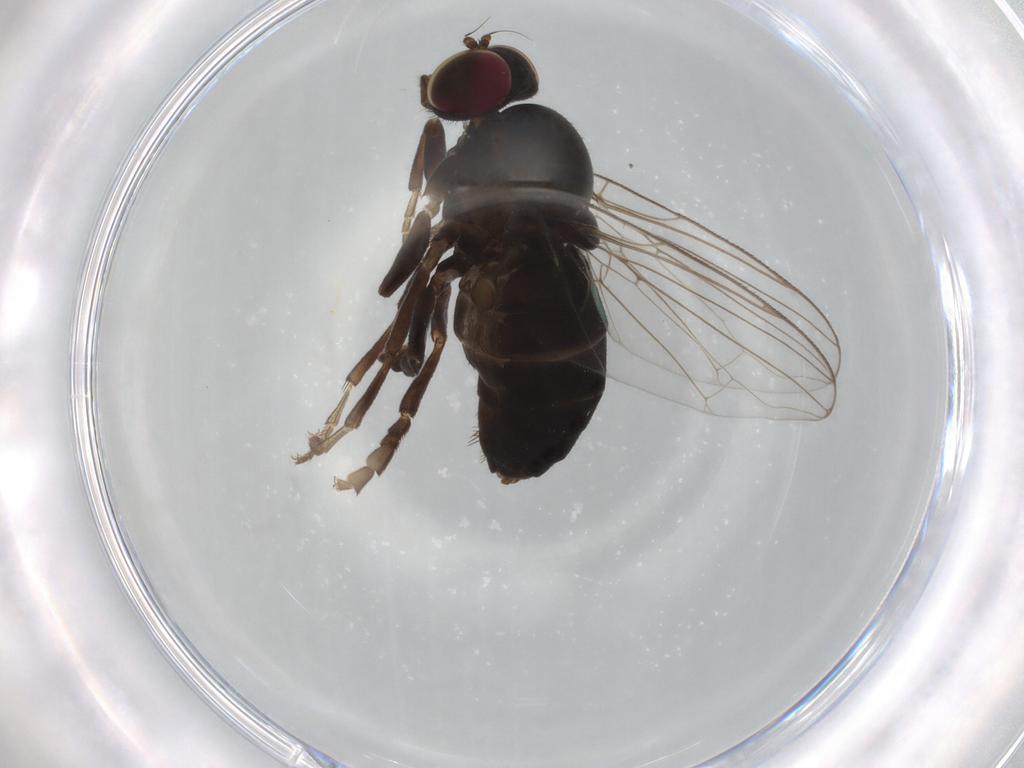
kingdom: Animalia
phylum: Arthropoda
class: Insecta
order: Diptera
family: Platypezidae
